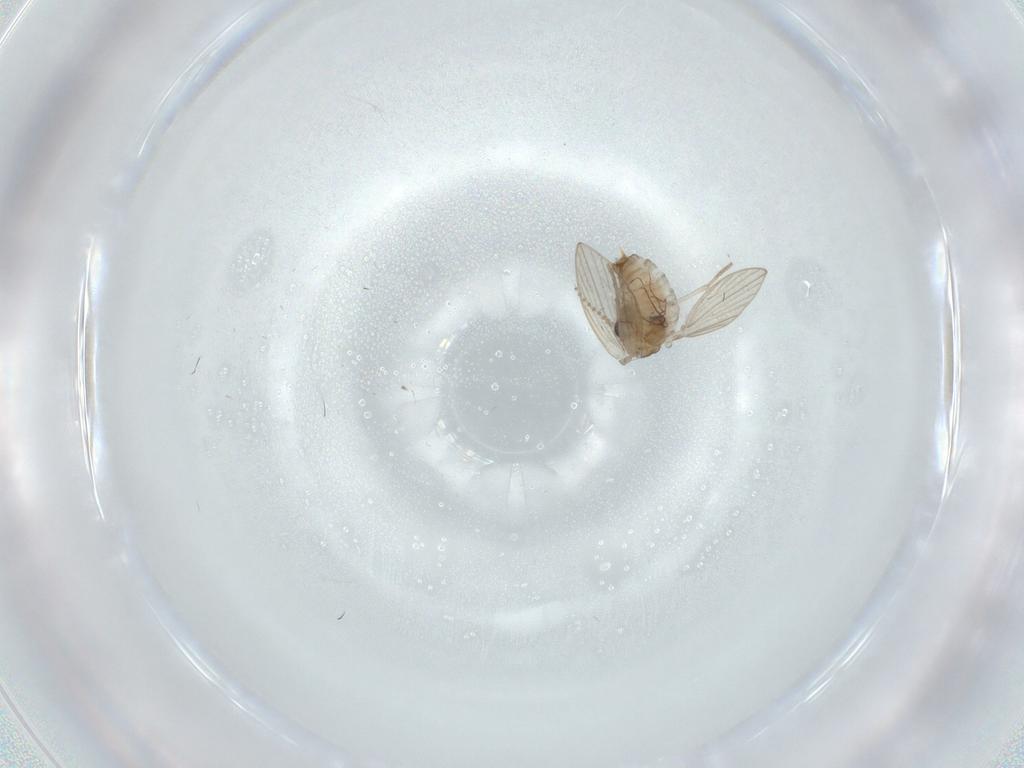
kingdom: Animalia
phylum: Arthropoda
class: Insecta
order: Diptera
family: Psychodidae
